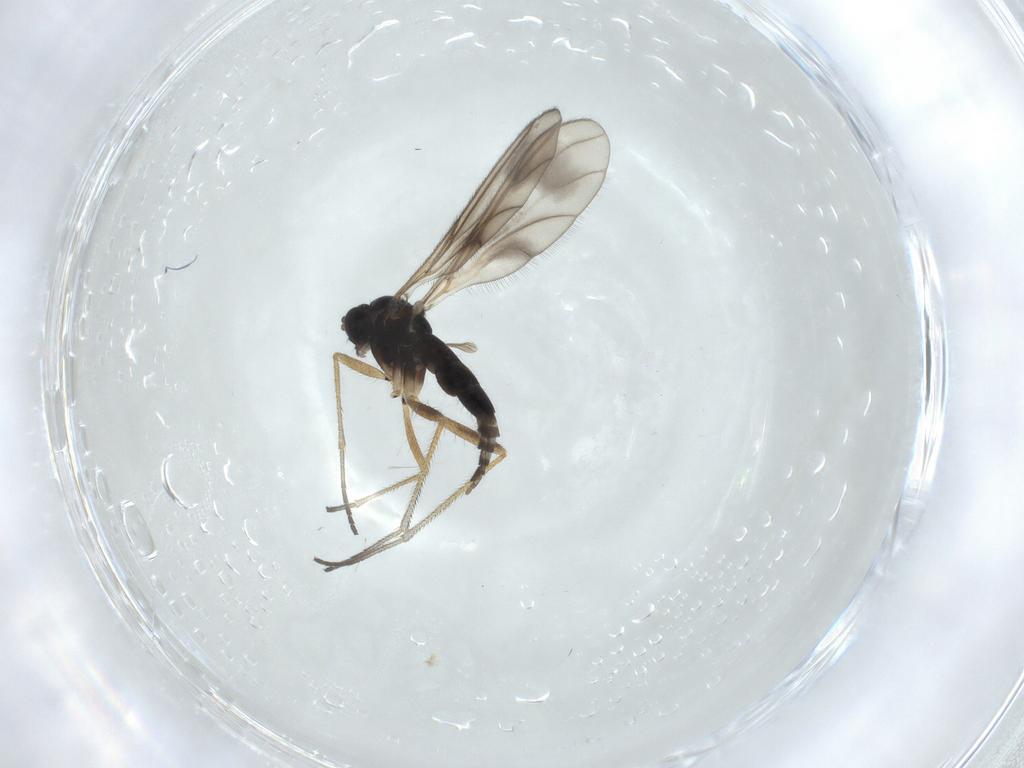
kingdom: Animalia
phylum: Arthropoda
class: Insecta
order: Diptera
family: Sciaridae
